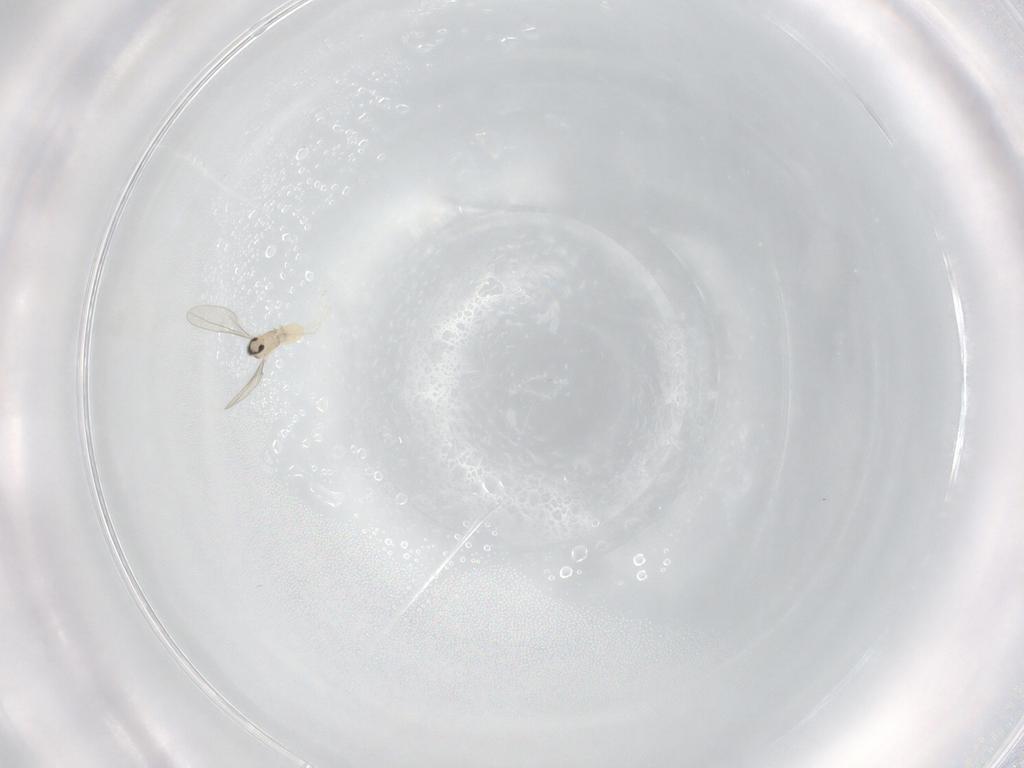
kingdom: Animalia
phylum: Arthropoda
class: Insecta
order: Diptera
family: Cecidomyiidae
